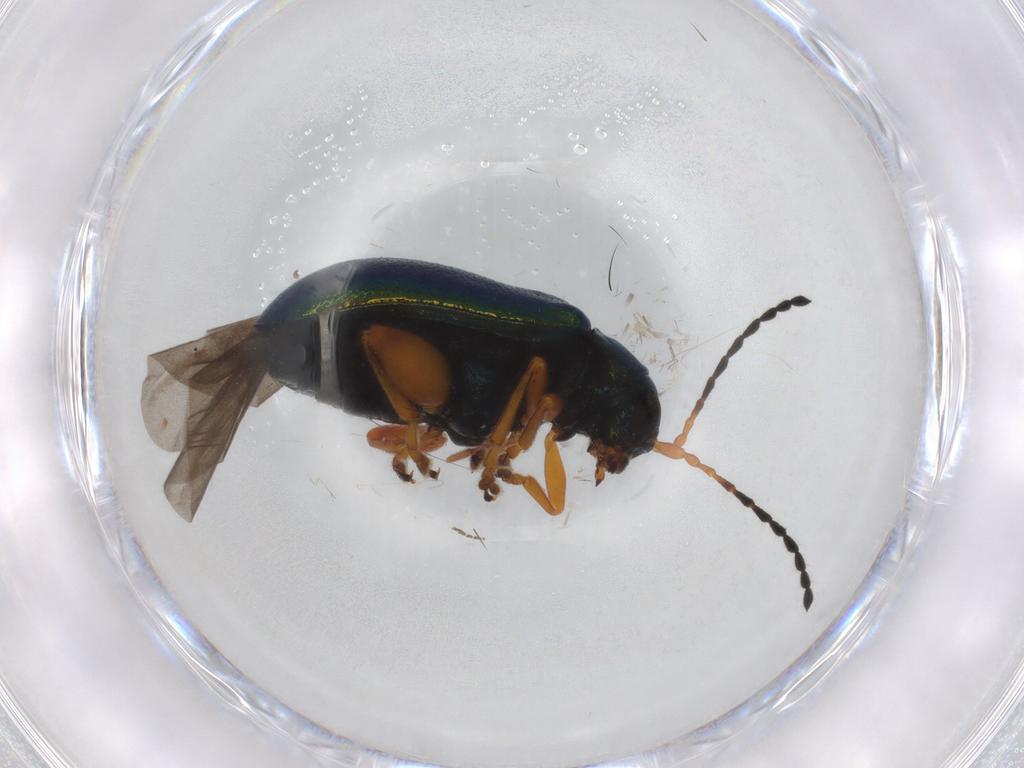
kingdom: Animalia
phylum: Arthropoda
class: Insecta
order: Coleoptera
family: Chrysomelidae
